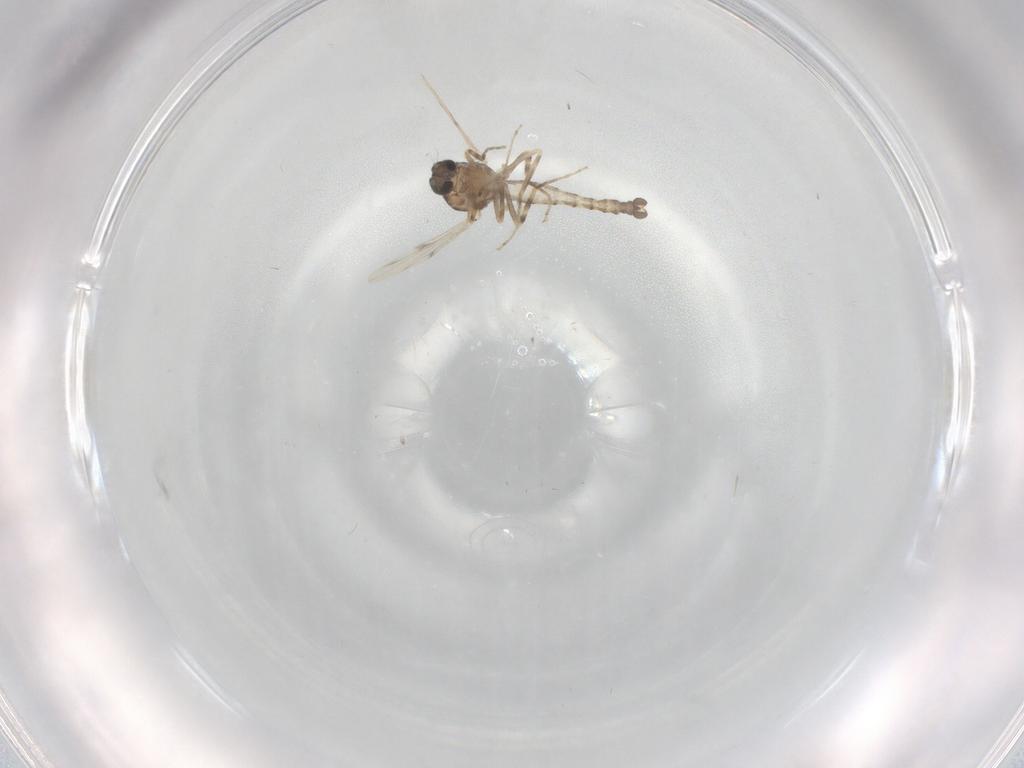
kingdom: Animalia
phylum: Arthropoda
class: Insecta
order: Diptera
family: Ceratopogonidae
